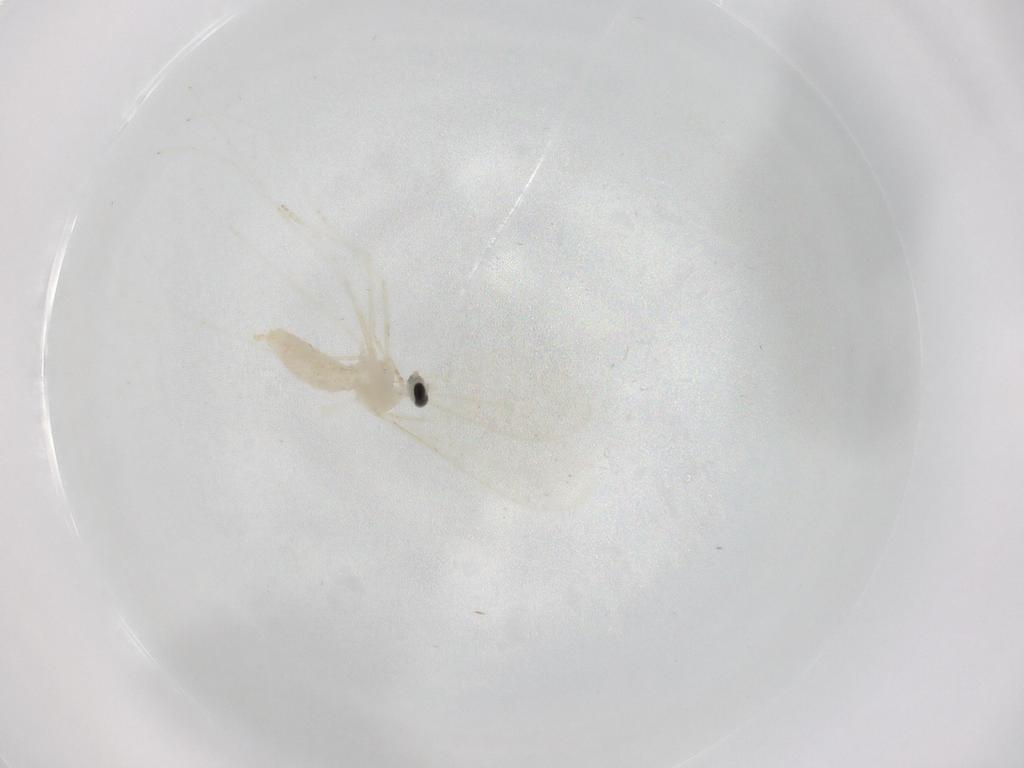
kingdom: Animalia
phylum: Arthropoda
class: Insecta
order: Diptera
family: Cecidomyiidae
